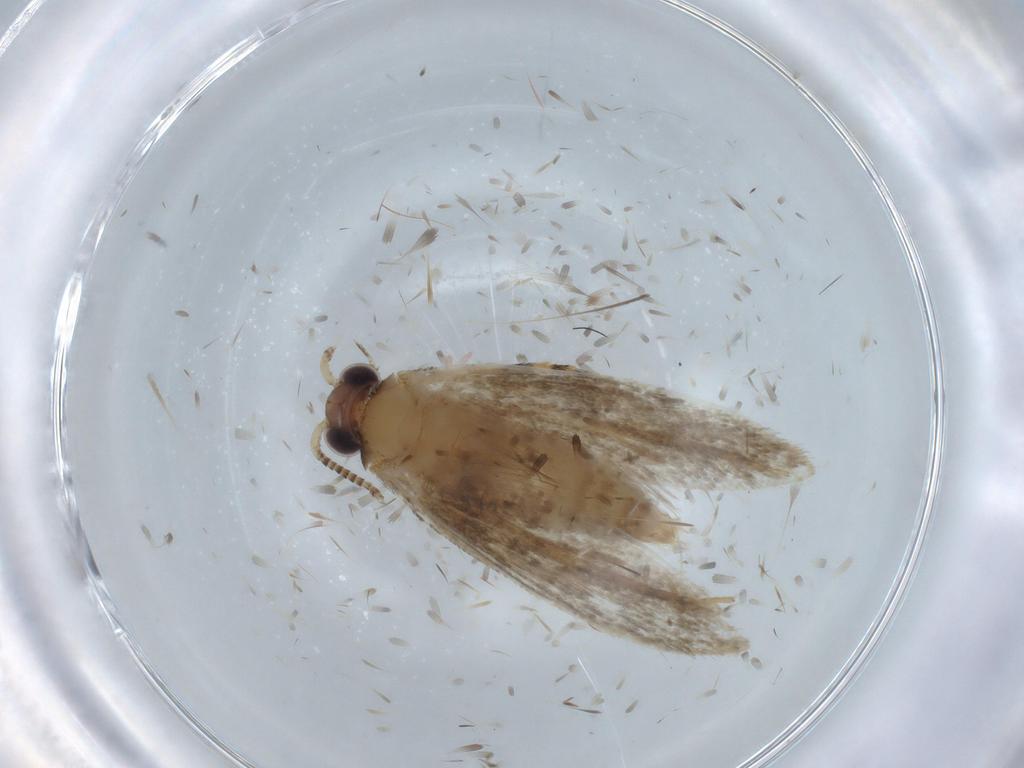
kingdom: Animalia
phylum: Arthropoda
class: Insecta
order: Lepidoptera
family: Tineidae
